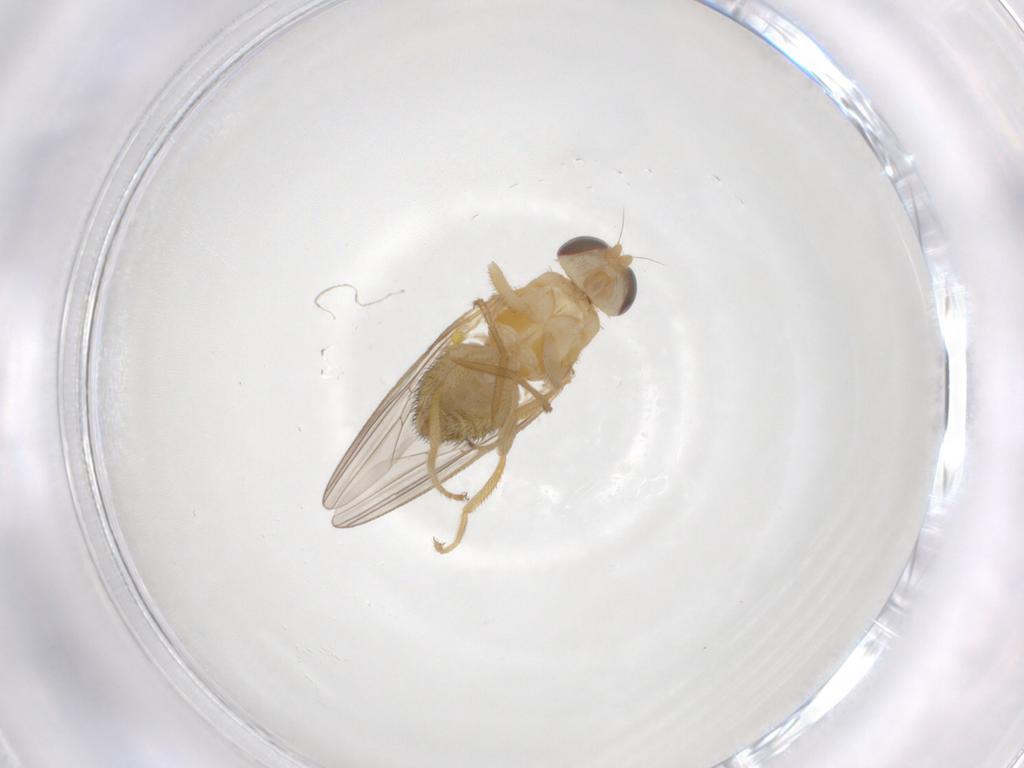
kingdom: Animalia
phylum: Arthropoda
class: Insecta
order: Diptera
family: Chyromyidae
